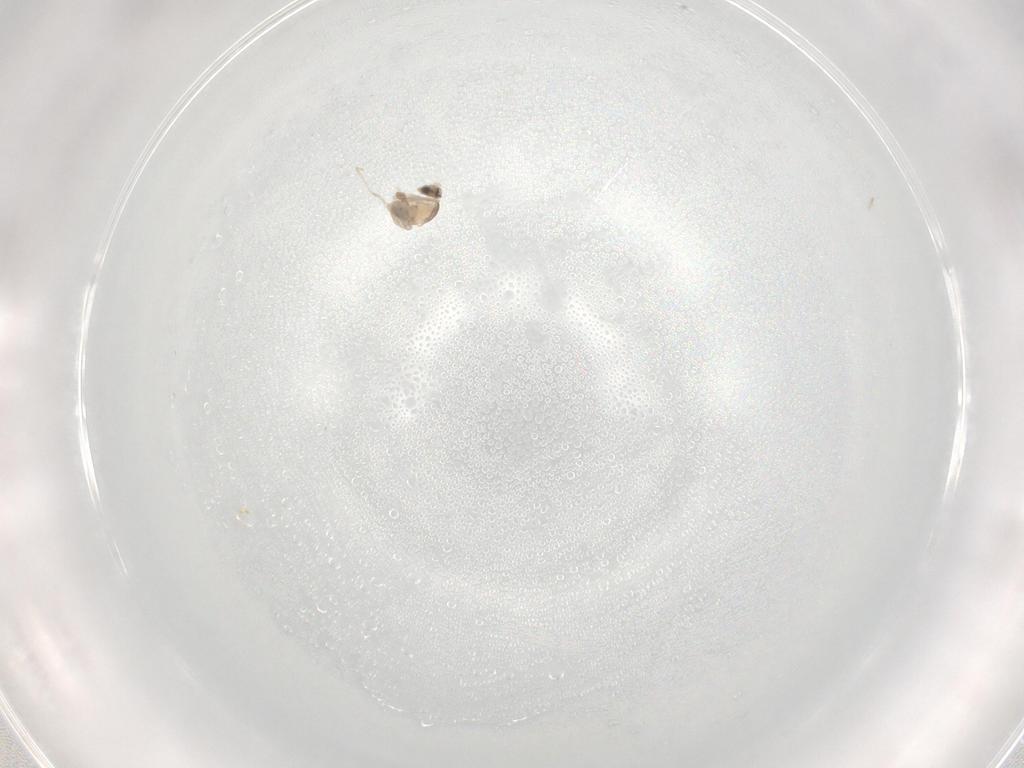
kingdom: Animalia
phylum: Arthropoda
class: Insecta
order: Diptera
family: Cecidomyiidae
